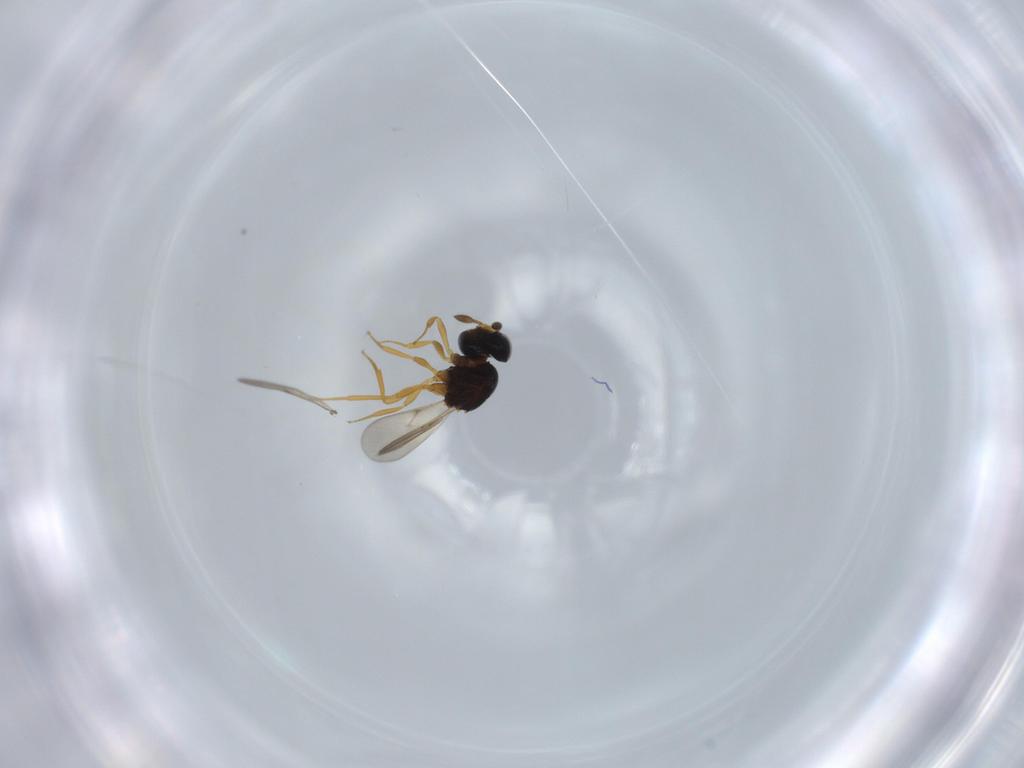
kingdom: Animalia
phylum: Arthropoda
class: Insecta
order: Hymenoptera
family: Scelionidae
